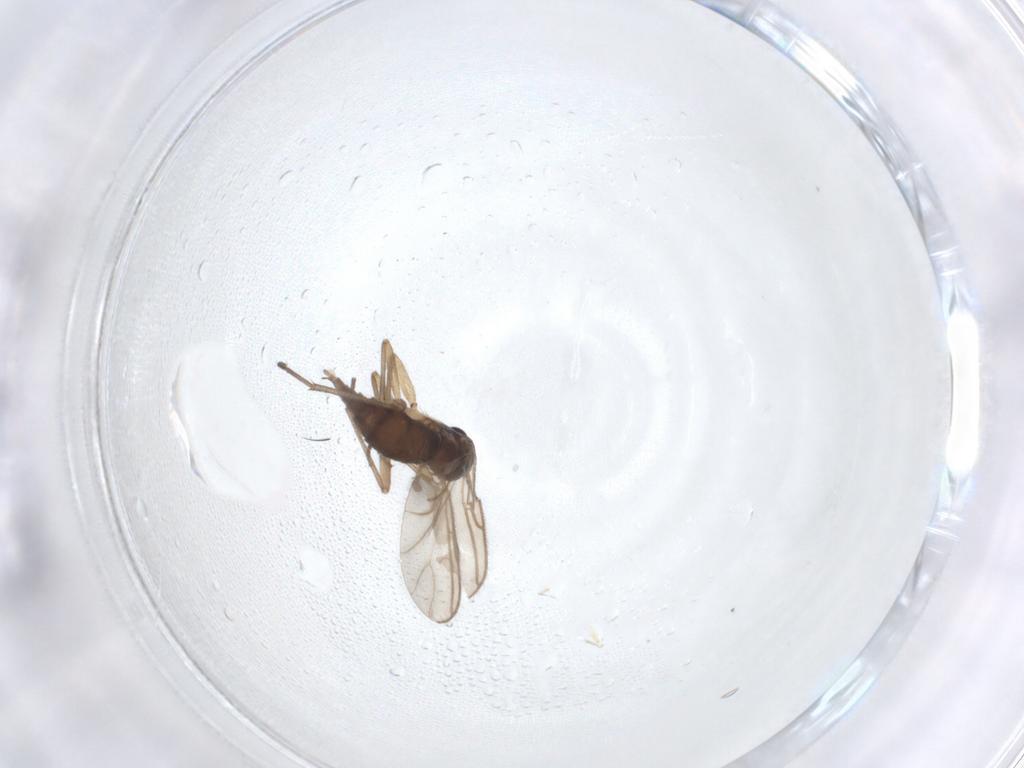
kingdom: Animalia
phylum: Arthropoda
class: Insecta
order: Diptera
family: Sciaridae
